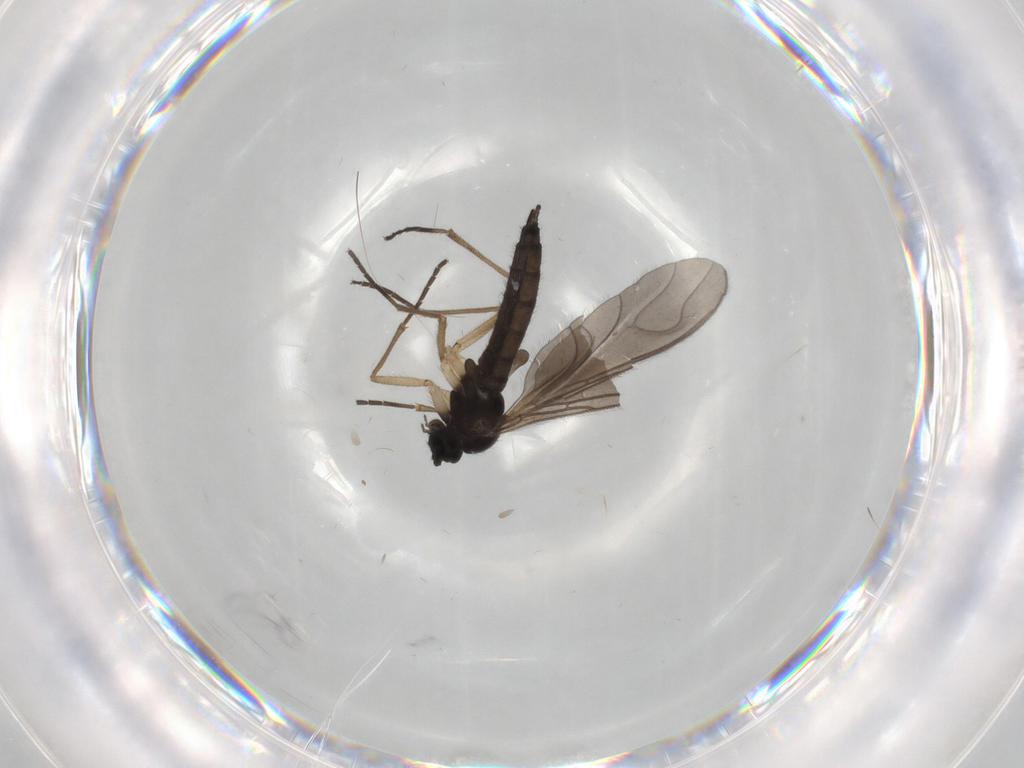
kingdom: Animalia
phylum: Arthropoda
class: Insecta
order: Diptera
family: Sciaridae
